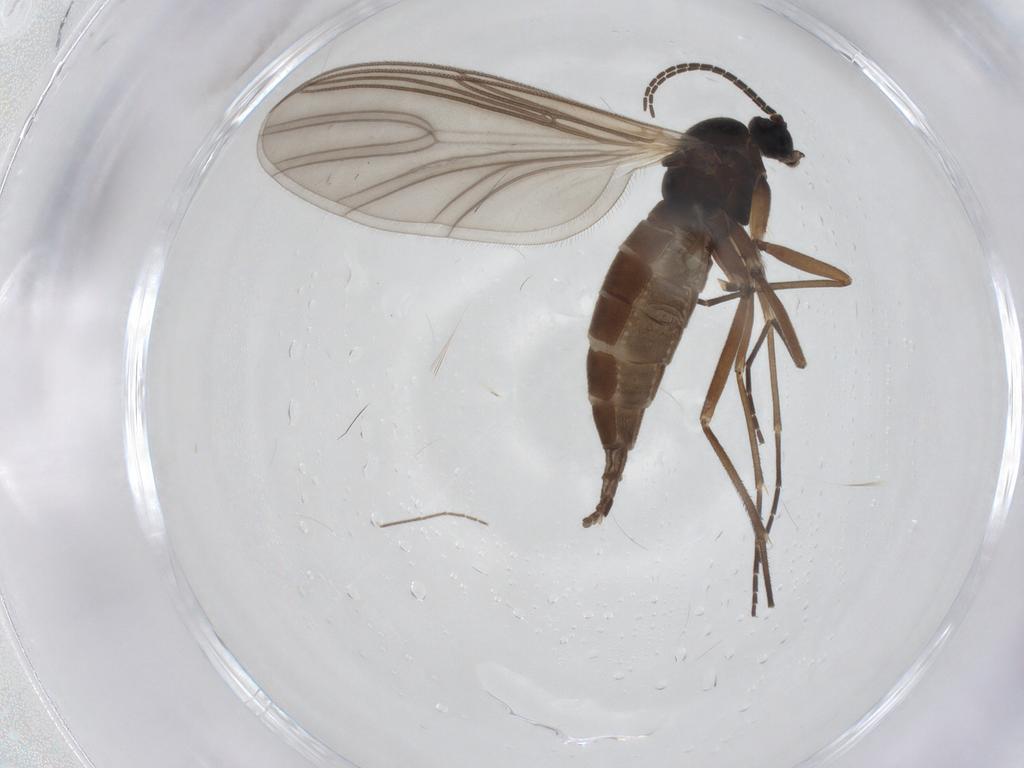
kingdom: Animalia
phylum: Arthropoda
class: Insecta
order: Diptera
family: Sciaridae
